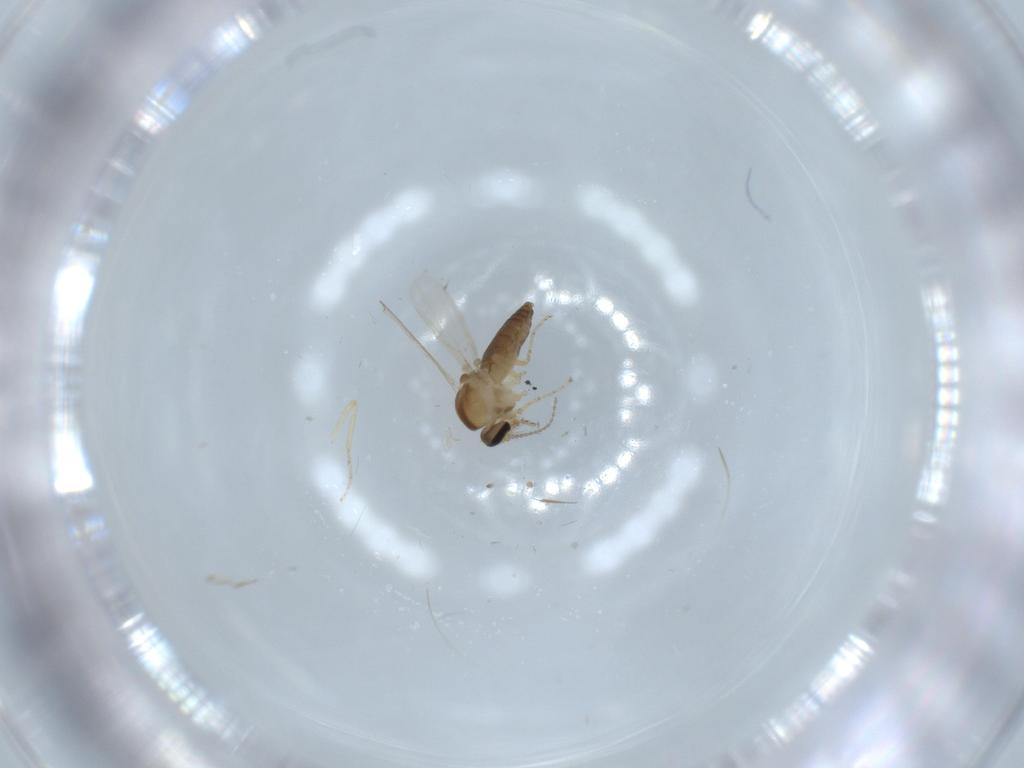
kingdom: Animalia
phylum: Arthropoda
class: Insecta
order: Diptera
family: Ceratopogonidae
